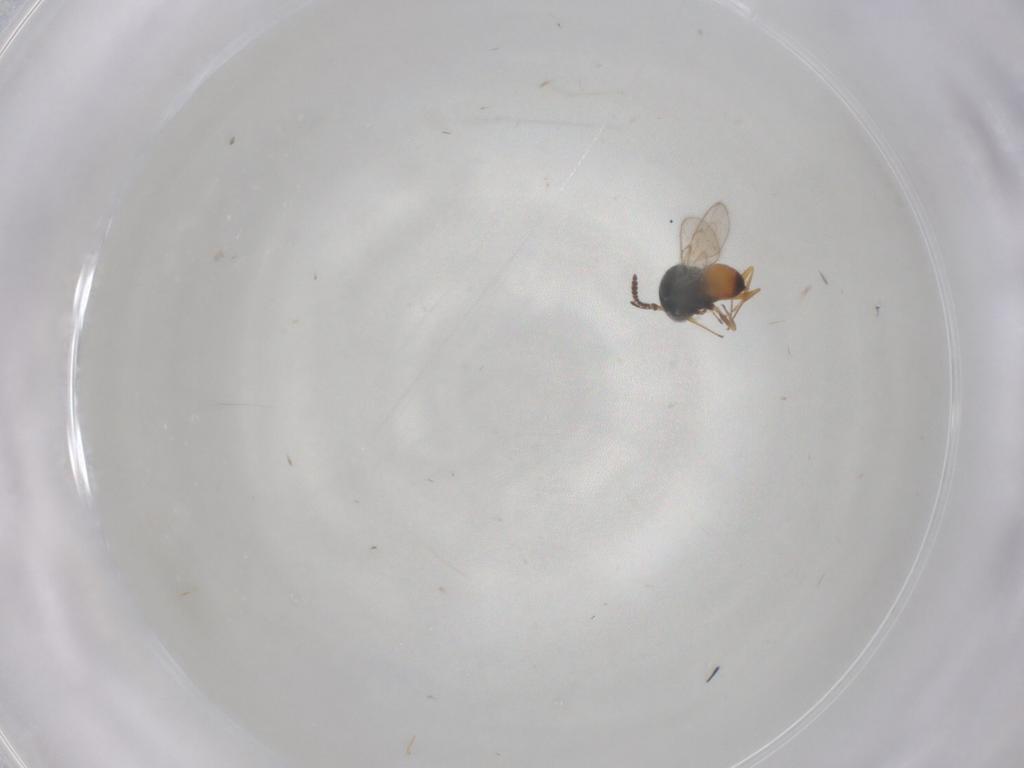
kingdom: Animalia
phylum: Arthropoda
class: Insecta
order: Hymenoptera
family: Scelionidae
